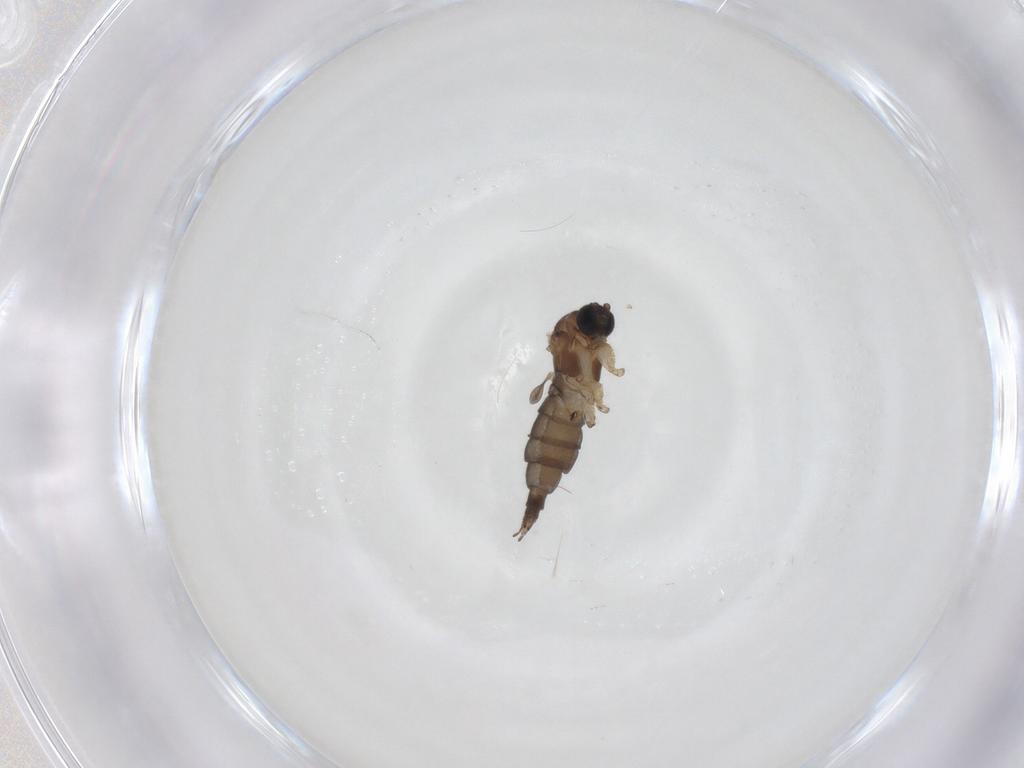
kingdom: Animalia
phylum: Arthropoda
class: Insecta
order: Diptera
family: Sciaridae
